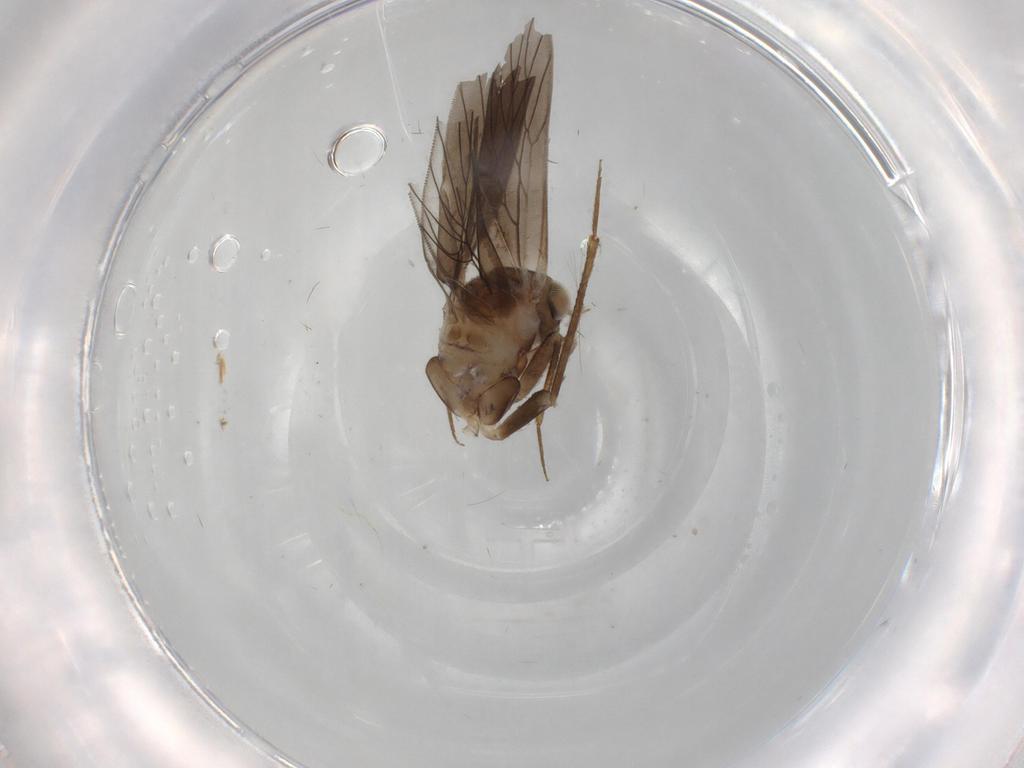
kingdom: Animalia
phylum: Arthropoda
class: Insecta
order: Psocodea
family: Lepidopsocidae
